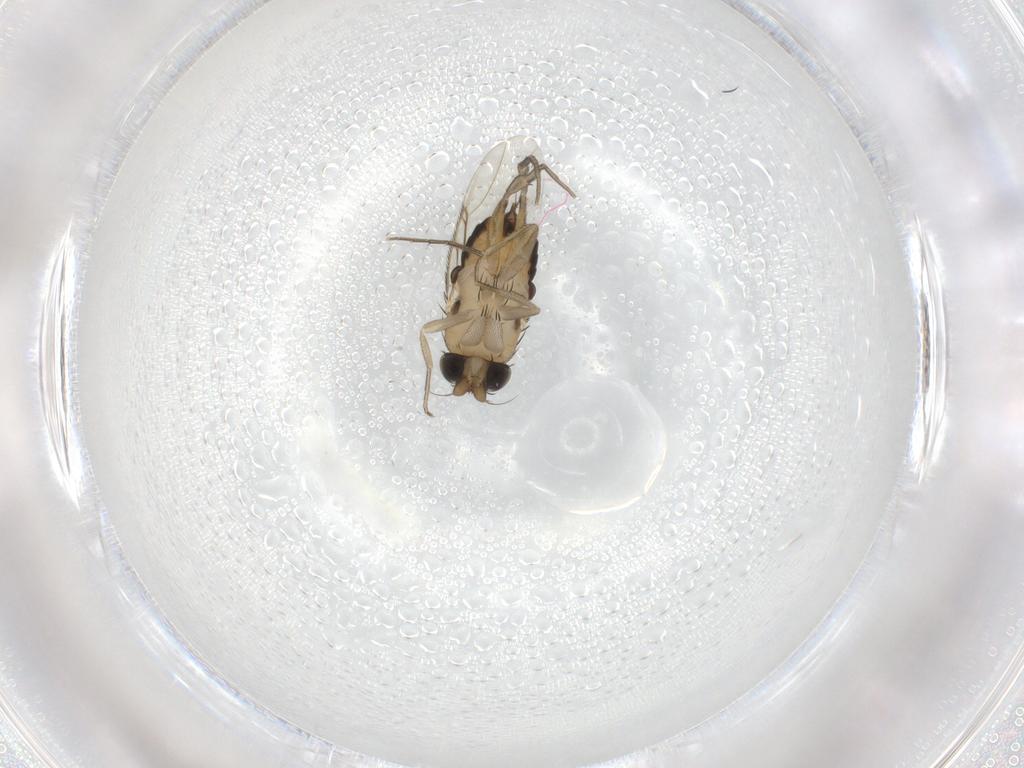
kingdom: Animalia
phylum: Arthropoda
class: Insecta
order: Diptera
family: Phoridae
